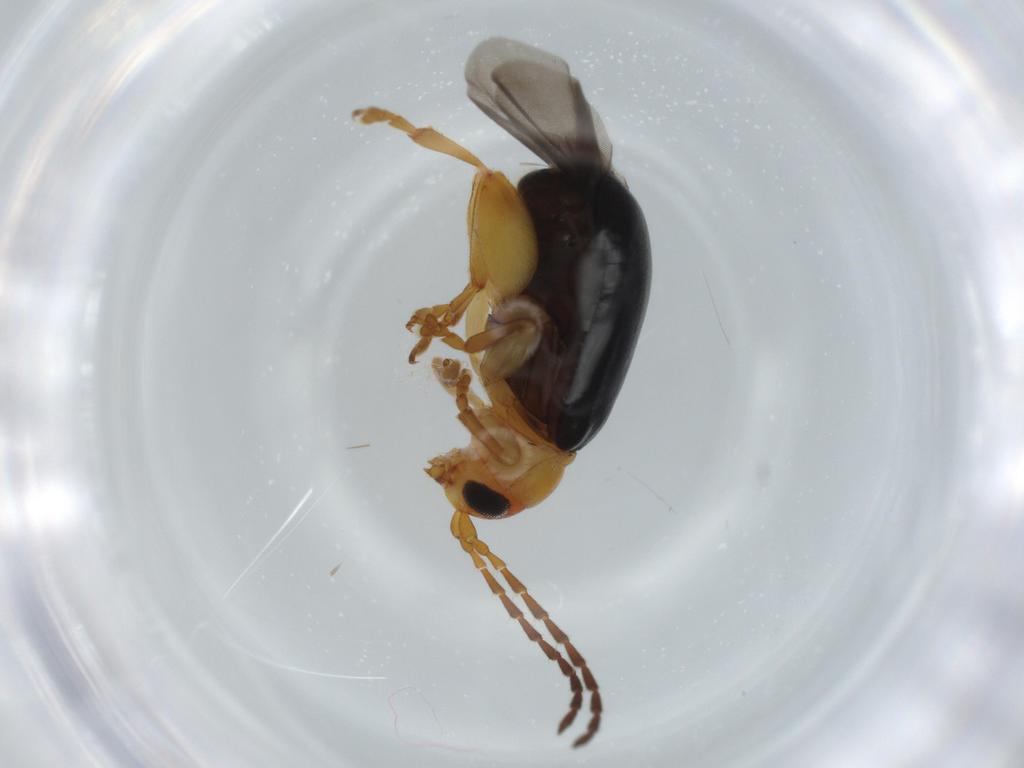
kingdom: Animalia
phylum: Arthropoda
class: Insecta
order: Coleoptera
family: Chrysomelidae
